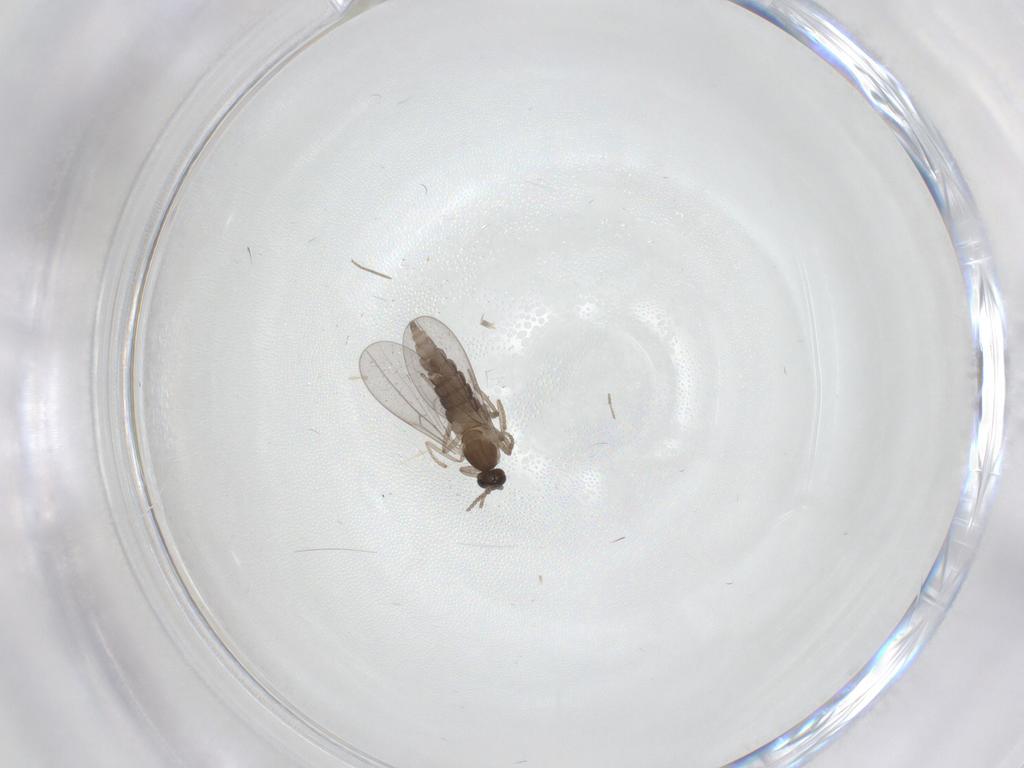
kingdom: Animalia
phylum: Arthropoda
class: Insecta
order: Diptera
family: Cecidomyiidae
